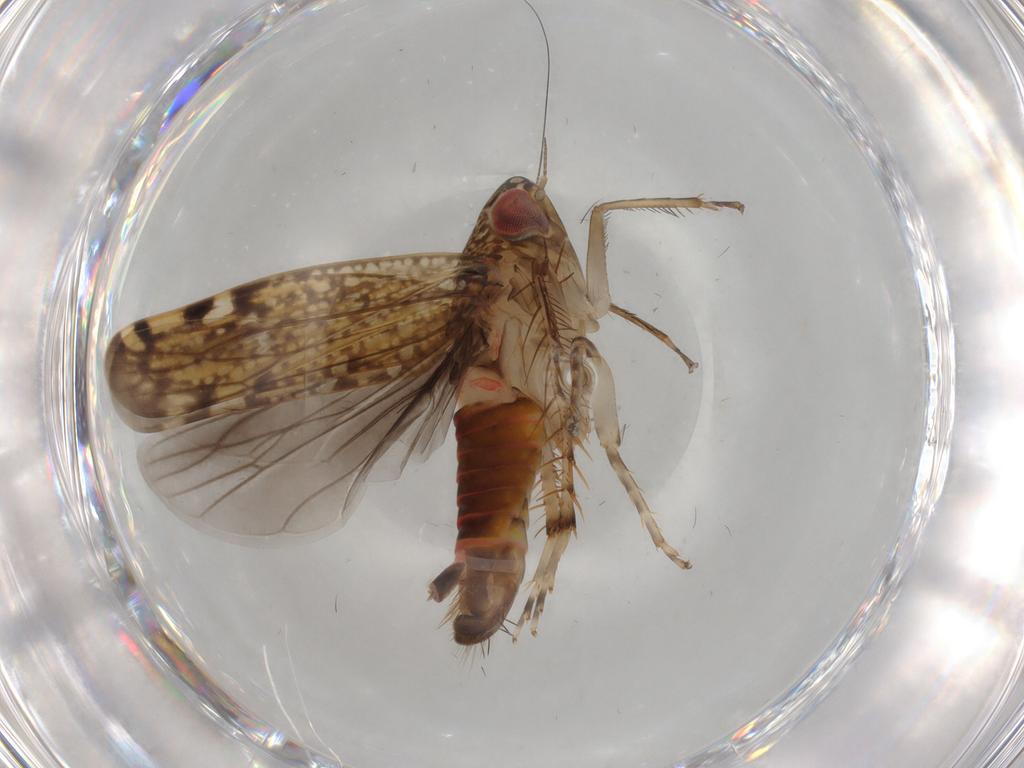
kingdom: Animalia
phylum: Arthropoda
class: Insecta
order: Hemiptera
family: Cicadellidae
